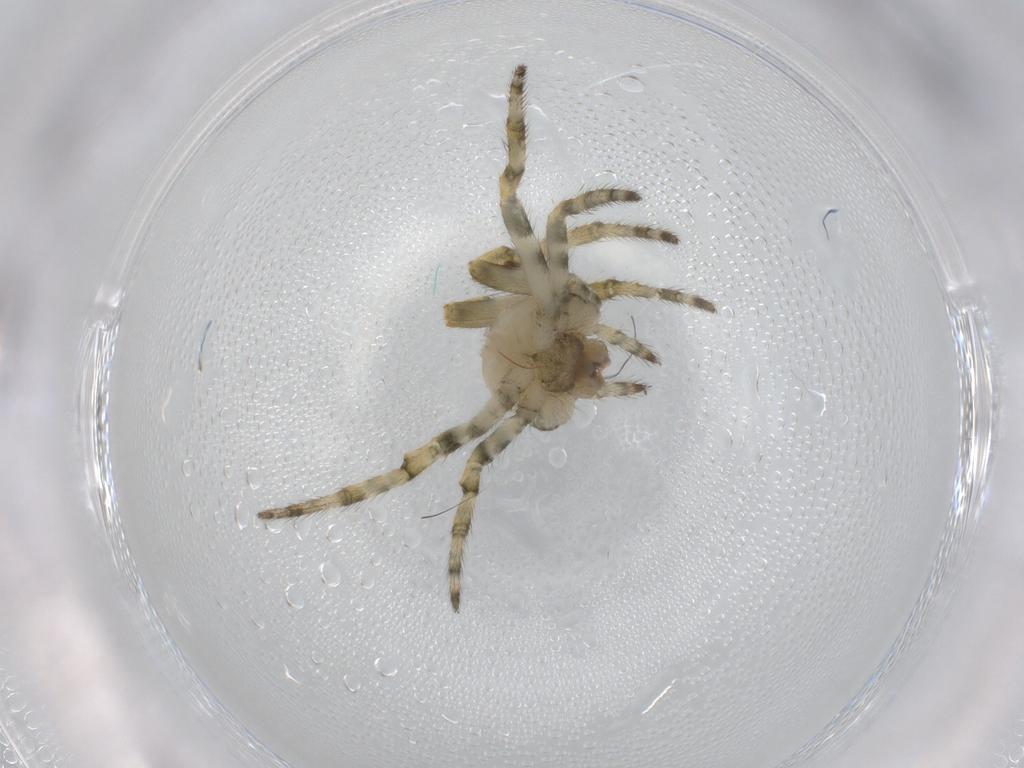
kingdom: Animalia
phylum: Arthropoda
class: Arachnida
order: Araneae
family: Araneidae
